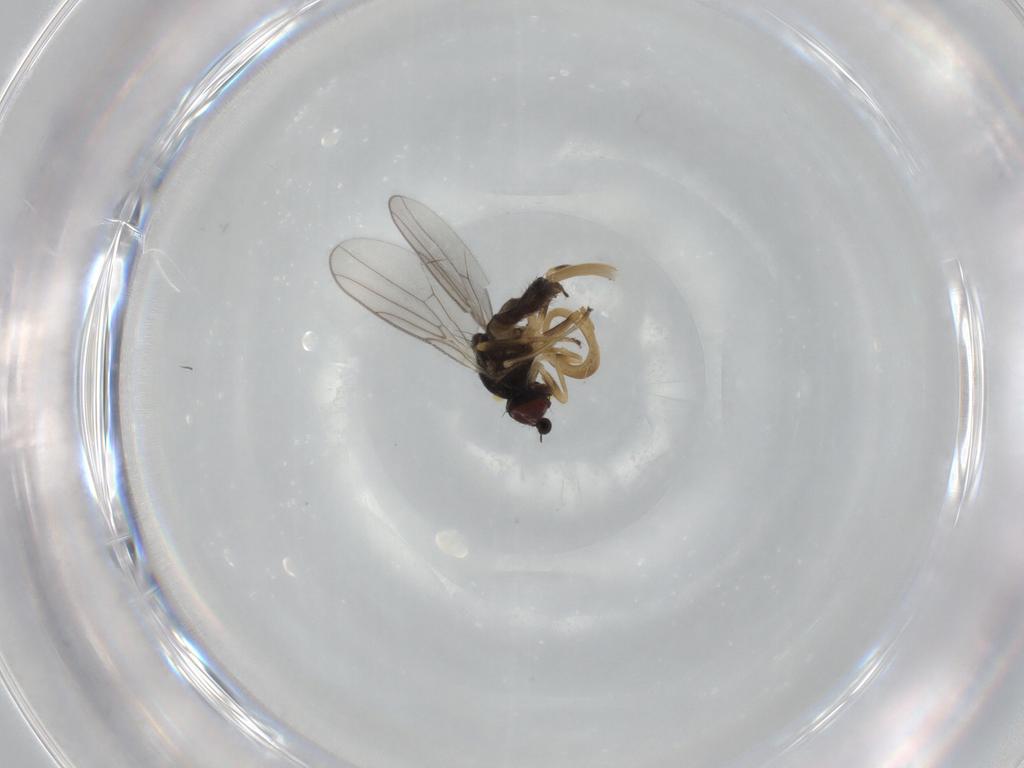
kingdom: Animalia
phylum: Arthropoda
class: Insecta
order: Diptera
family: Chloropidae
